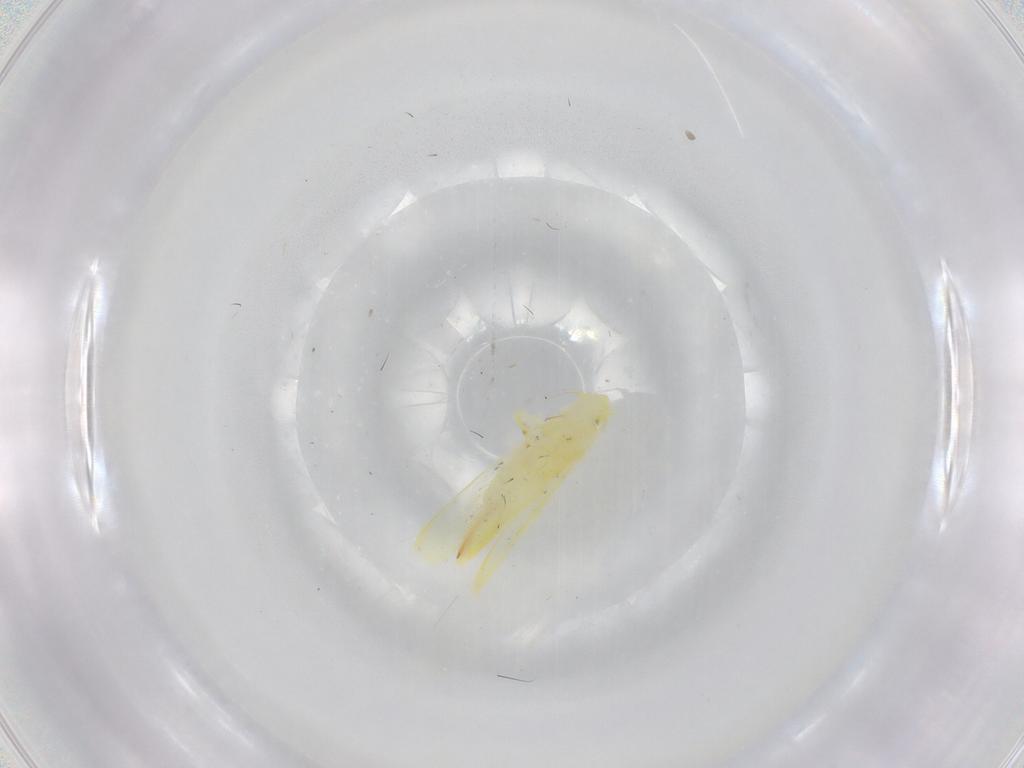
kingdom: Animalia
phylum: Arthropoda
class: Insecta
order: Hemiptera
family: Cicadellidae
